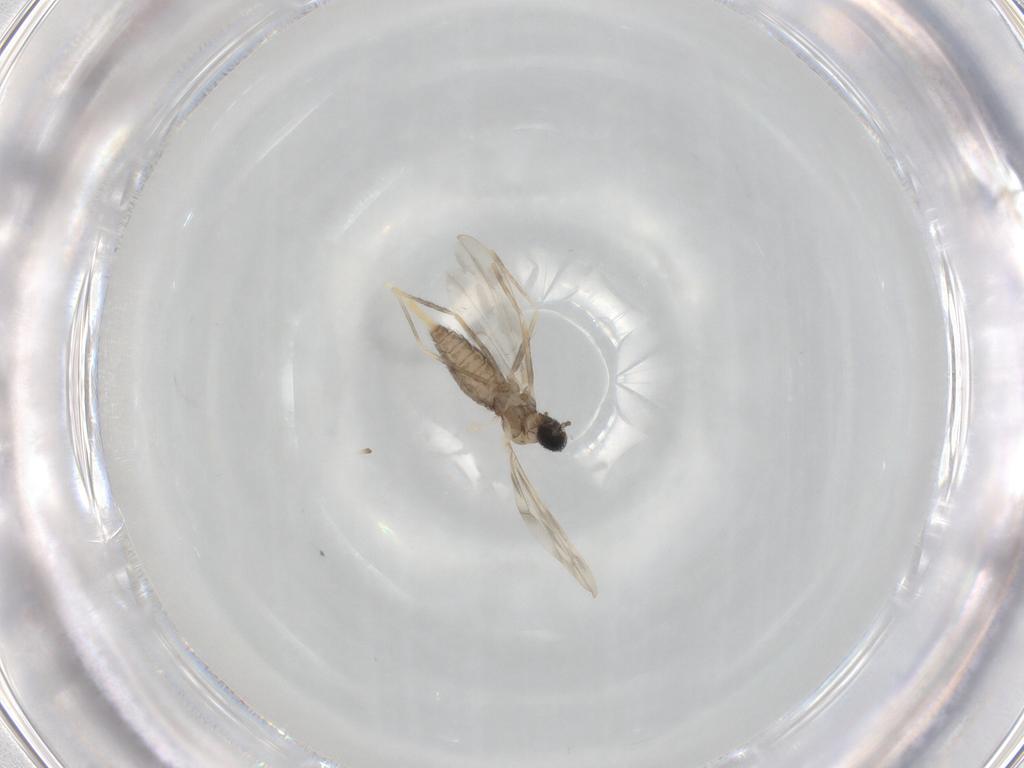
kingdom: Animalia
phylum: Arthropoda
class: Insecta
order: Diptera
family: Cecidomyiidae
